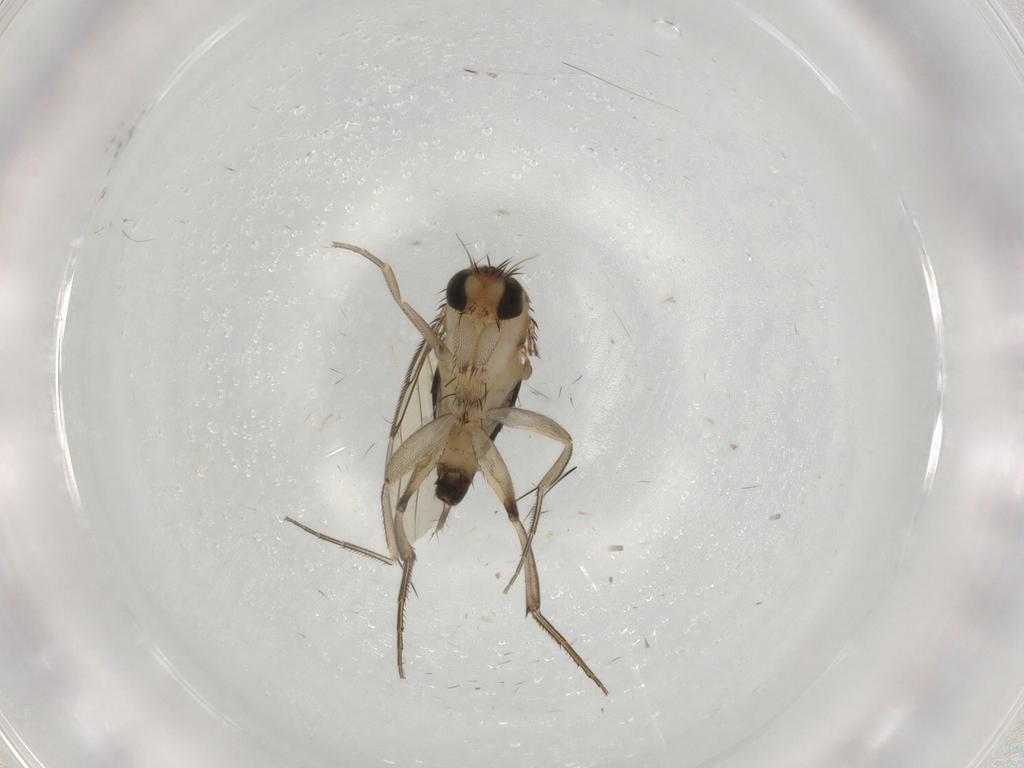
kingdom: Animalia
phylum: Arthropoda
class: Insecta
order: Diptera
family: Phoridae
